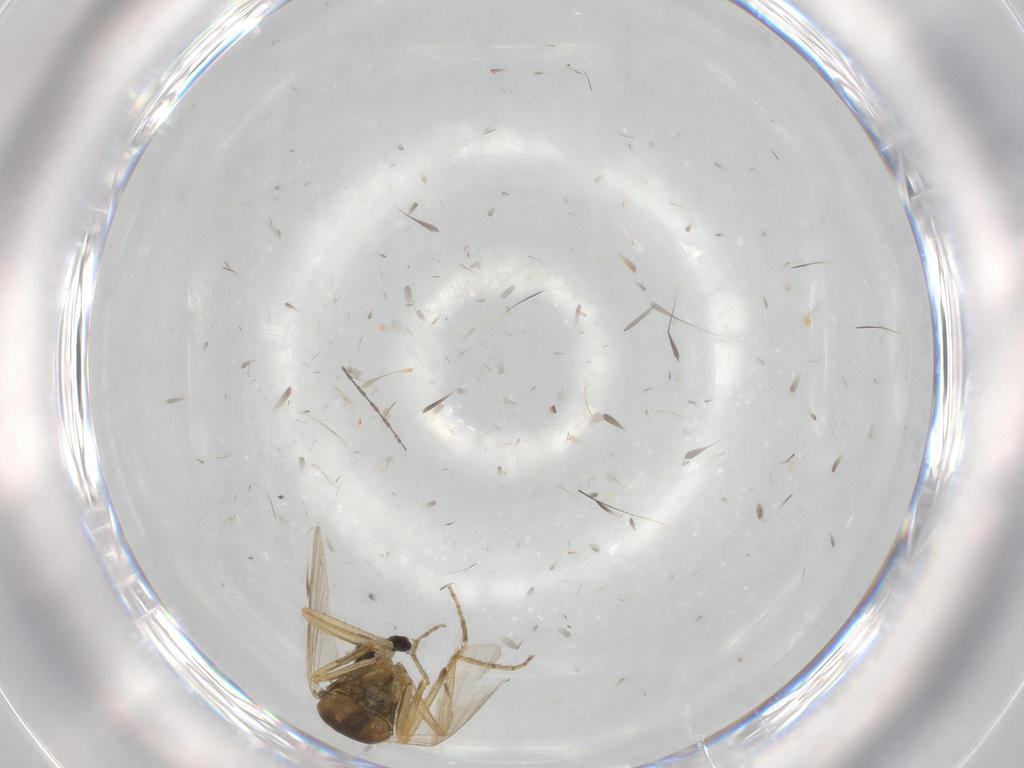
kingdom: Animalia
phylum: Arthropoda
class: Insecta
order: Diptera
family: Ceratopogonidae
